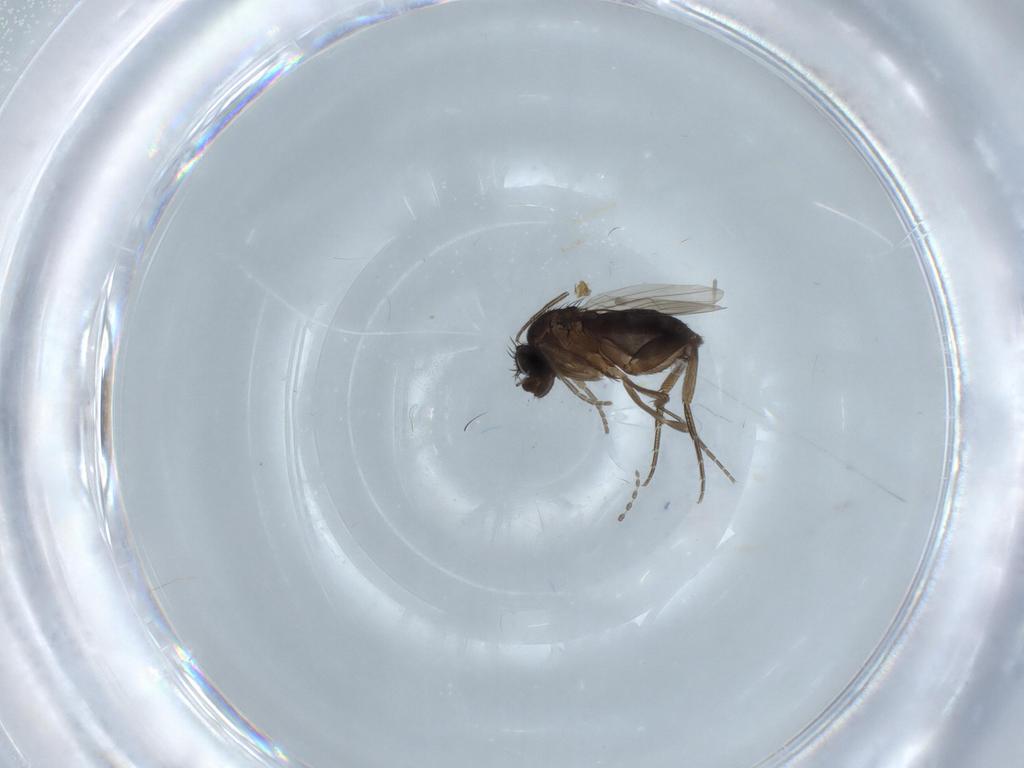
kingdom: Animalia
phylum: Arthropoda
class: Insecta
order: Diptera
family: Phoridae
